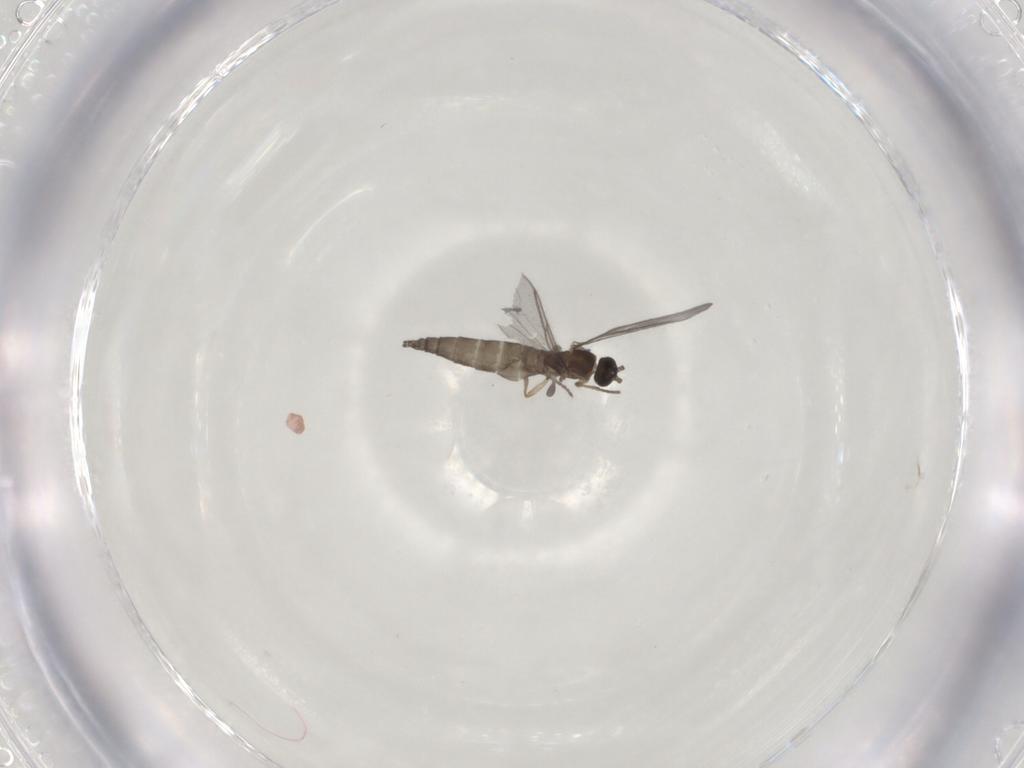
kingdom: Animalia
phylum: Arthropoda
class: Insecta
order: Diptera
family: Sciaridae
